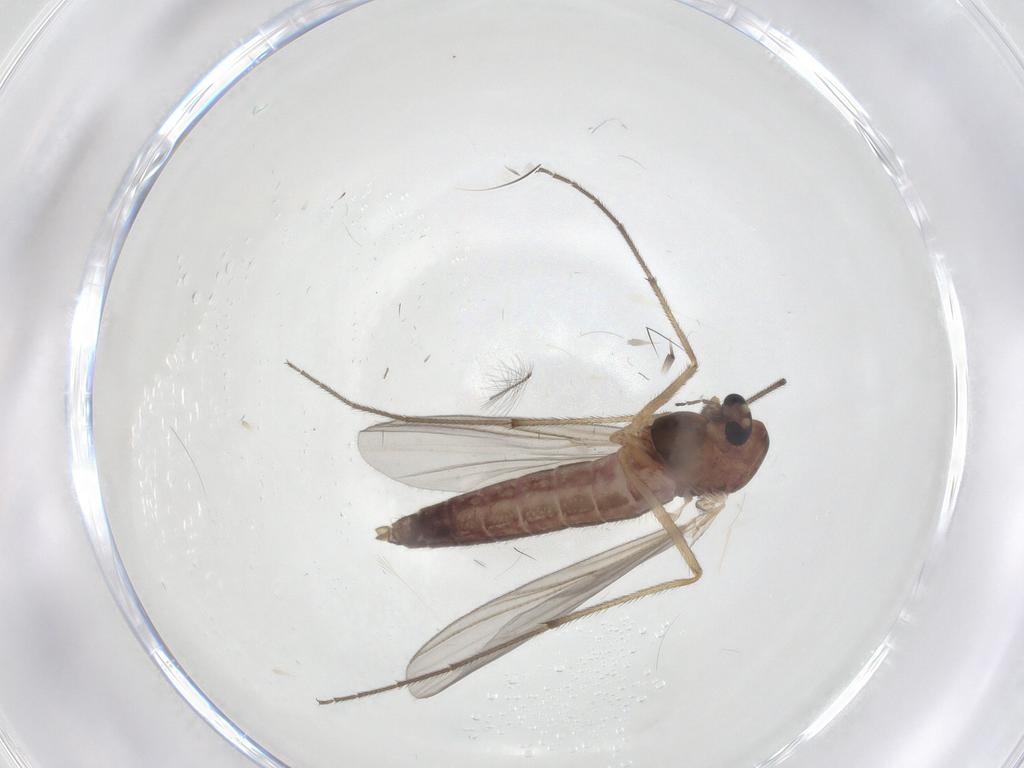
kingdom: Animalia
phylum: Arthropoda
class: Insecta
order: Diptera
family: Chironomidae
